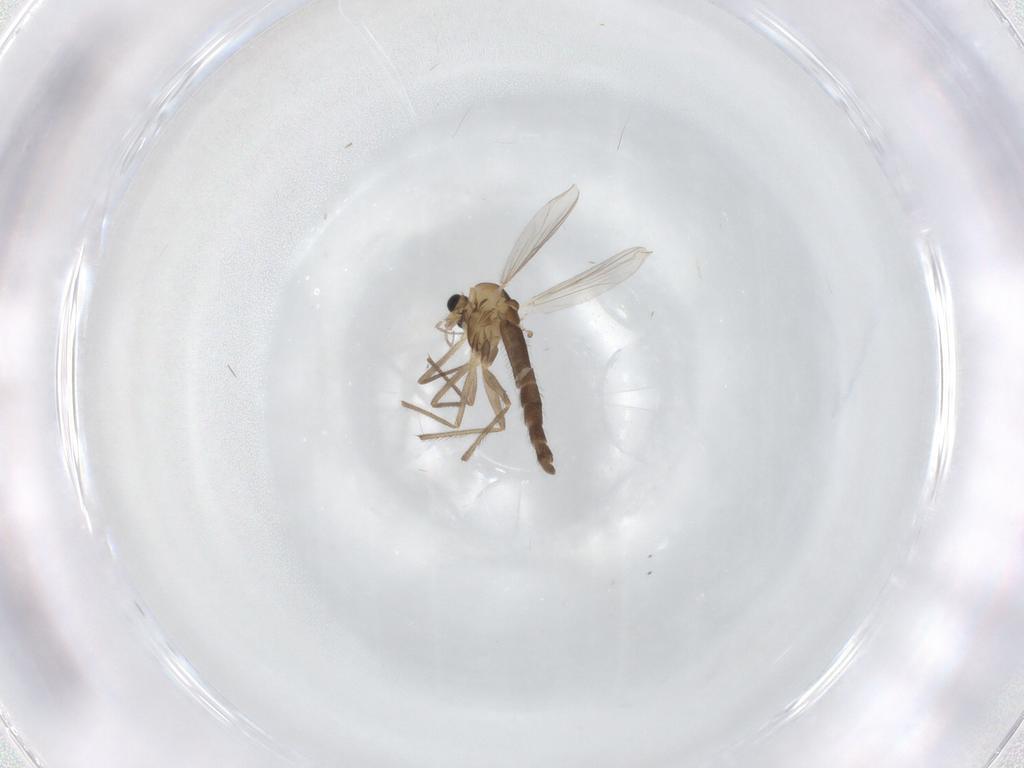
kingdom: Animalia
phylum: Arthropoda
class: Insecta
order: Diptera
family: Chironomidae
